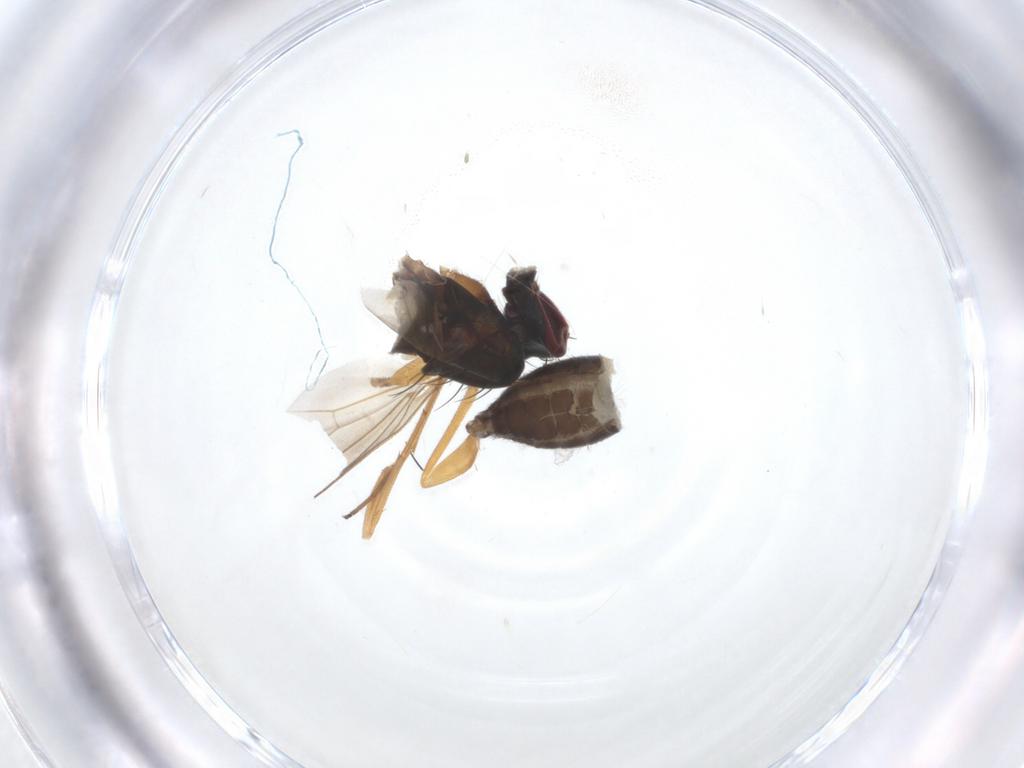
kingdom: Animalia
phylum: Arthropoda
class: Insecta
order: Diptera
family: Dolichopodidae
